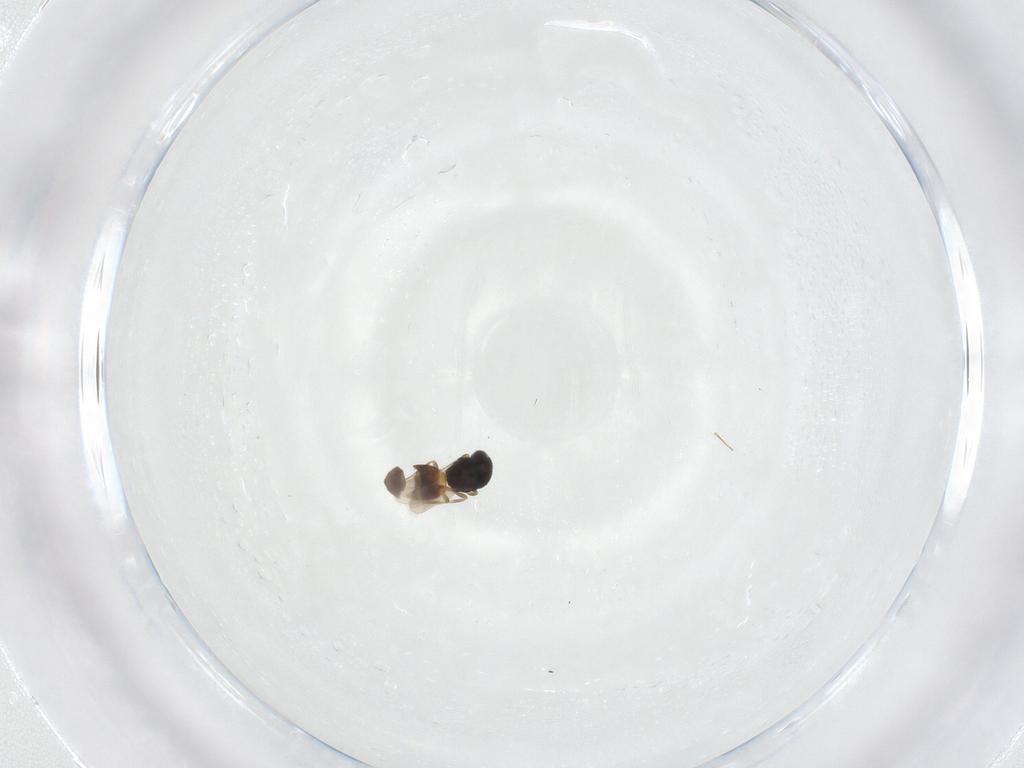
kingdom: Animalia
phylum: Arthropoda
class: Insecta
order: Hymenoptera
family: Scelionidae
